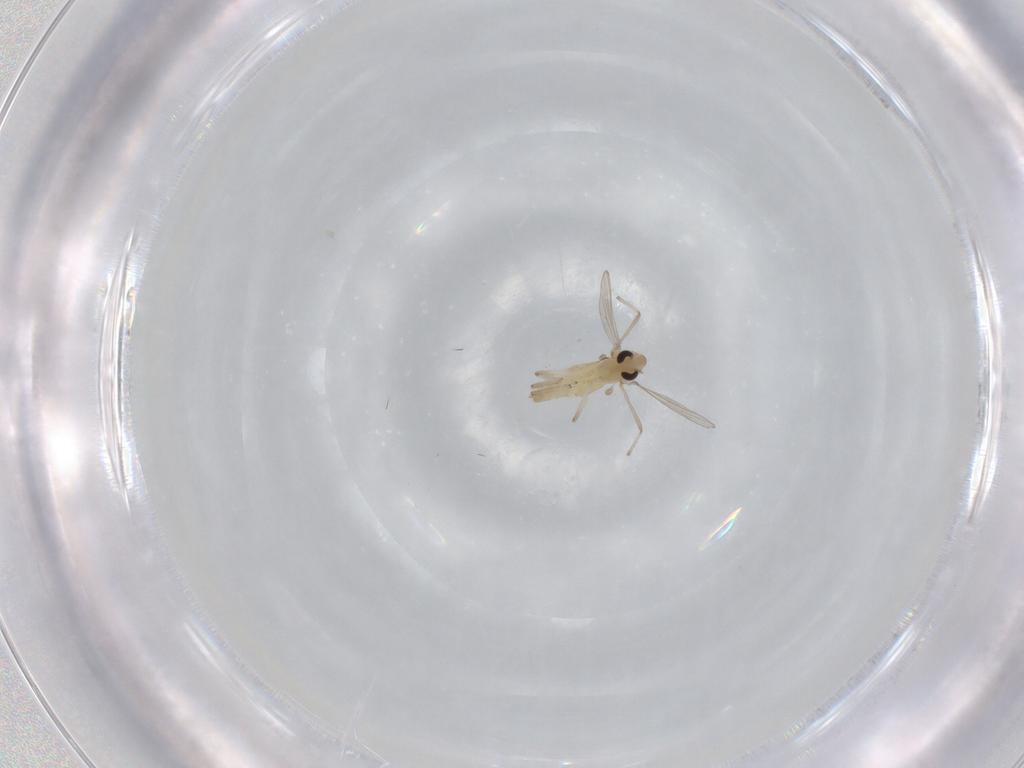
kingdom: Animalia
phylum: Arthropoda
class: Insecta
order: Diptera
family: Chironomidae
